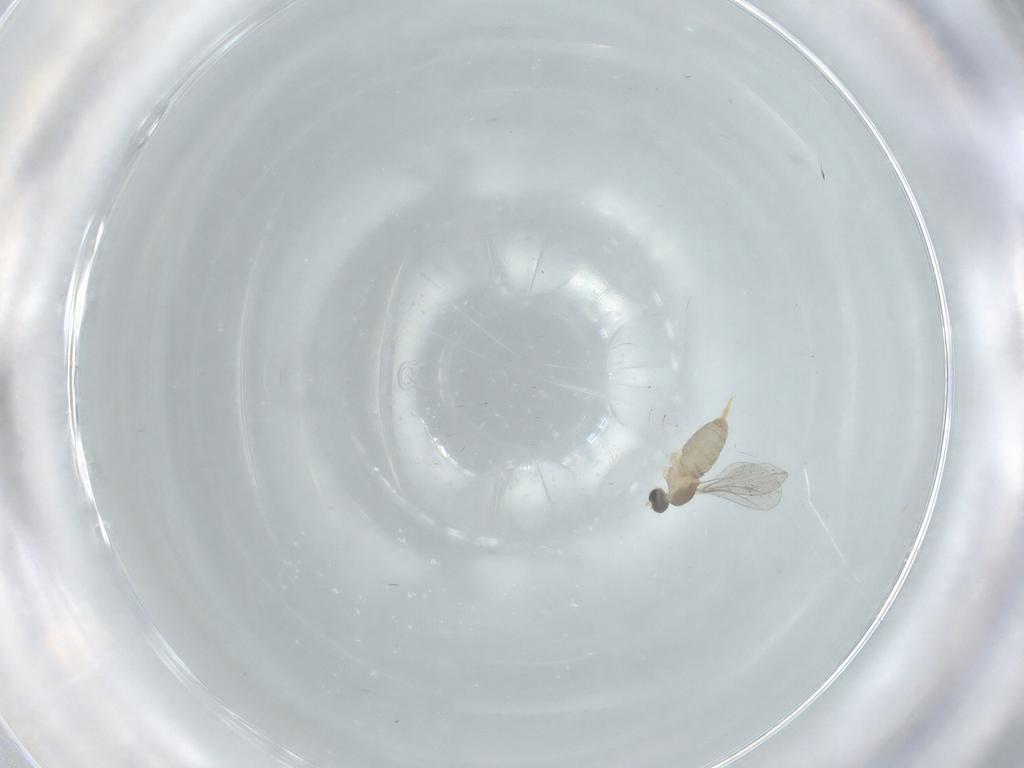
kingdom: Animalia
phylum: Arthropoda
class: Insecta
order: Diptera
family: Cecidomyiidae
